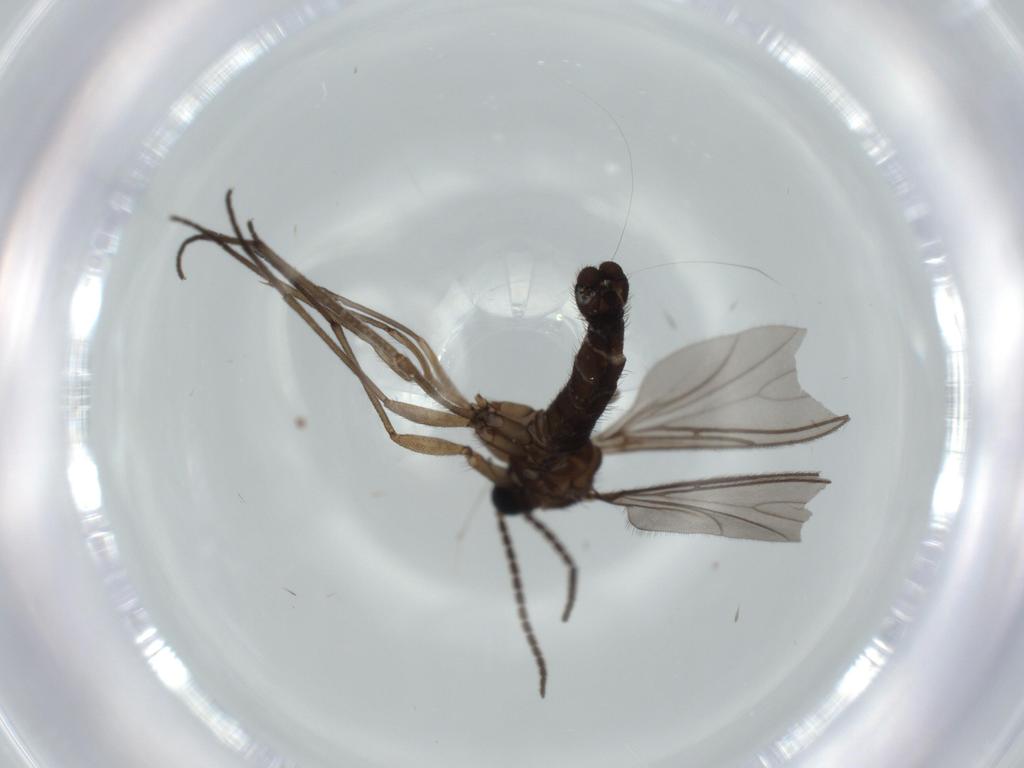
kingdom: Animalia
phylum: Arthropoda
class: Insecta
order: Diptera
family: Sciaridae
